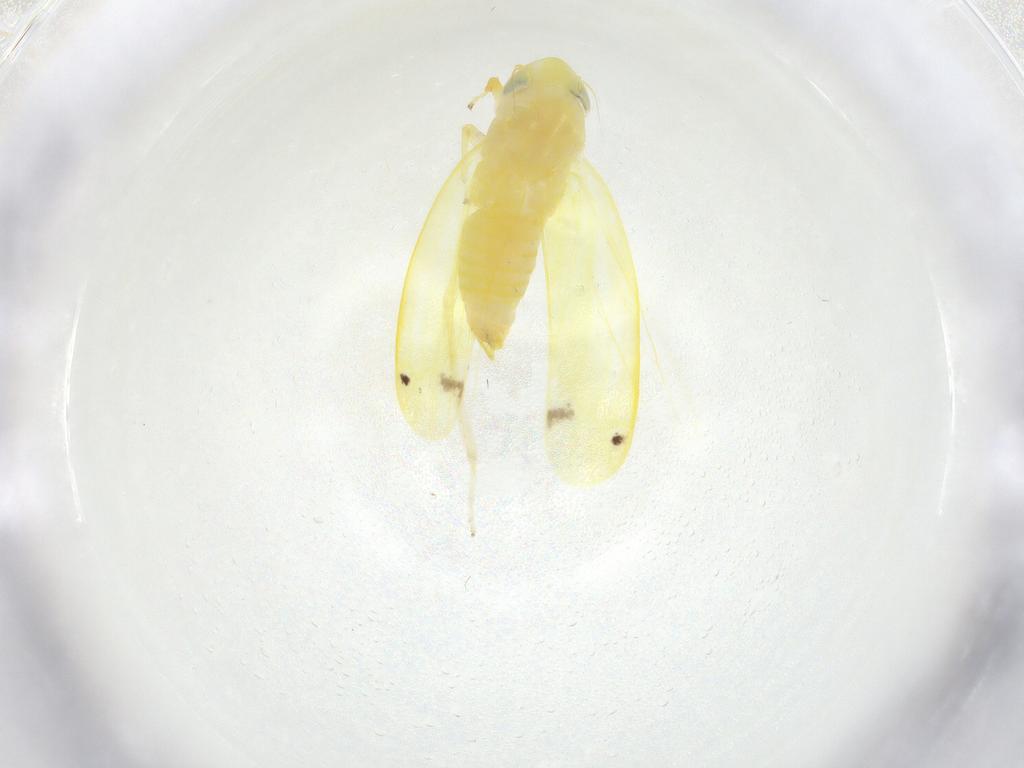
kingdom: Animalia
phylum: Arthropoda
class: Insecta
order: Hemiptera
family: Cicadellidae
